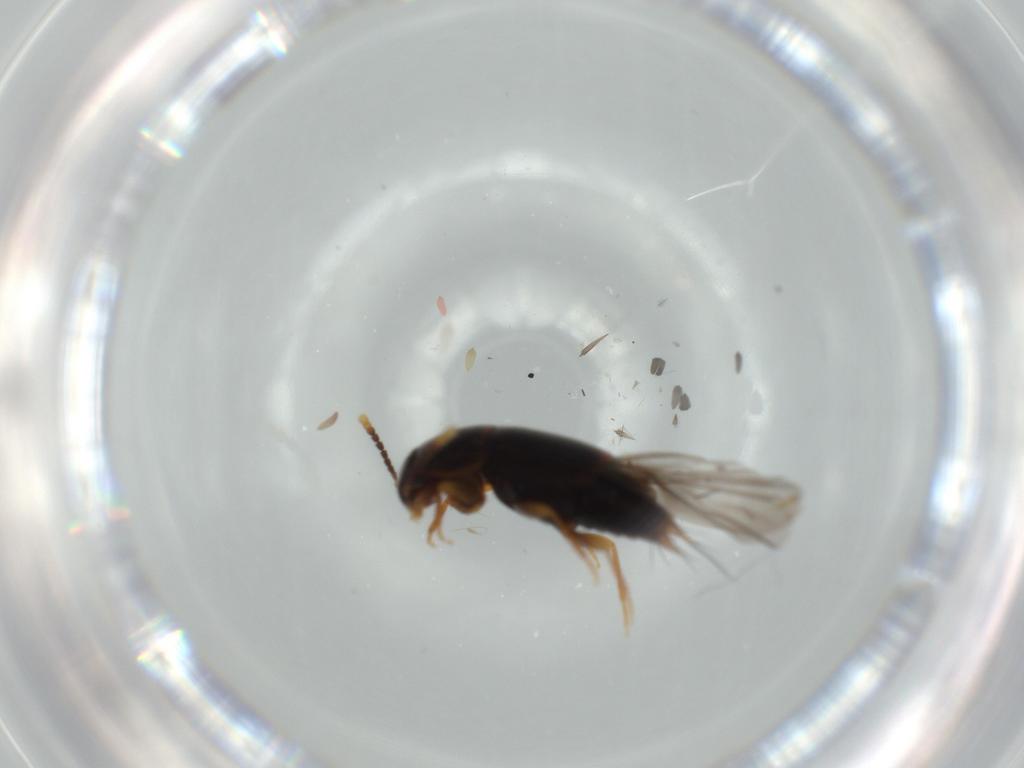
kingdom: Animalia
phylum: Arthropoda
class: Insecta
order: Coleoptera
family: Staphylinidae
